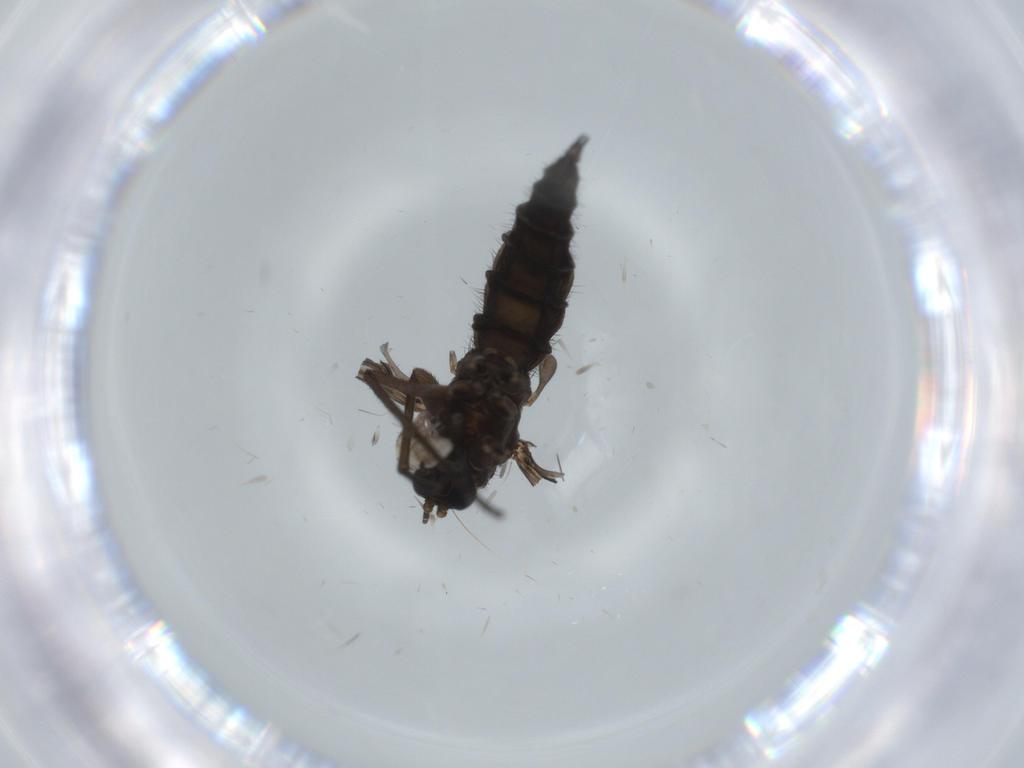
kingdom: Animalia
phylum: Arthropoda
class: Insecta
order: Diptera
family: Sciaridae
